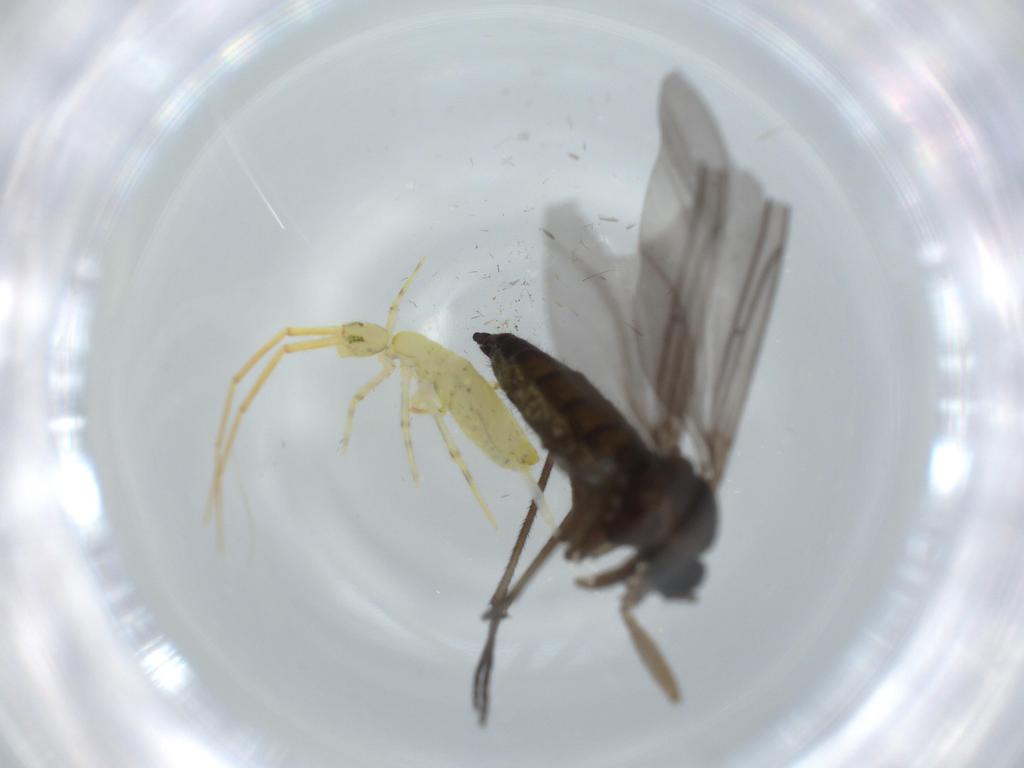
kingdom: Animalia
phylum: Arthropoda
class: Insecta
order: Diptera
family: Sciaridae
